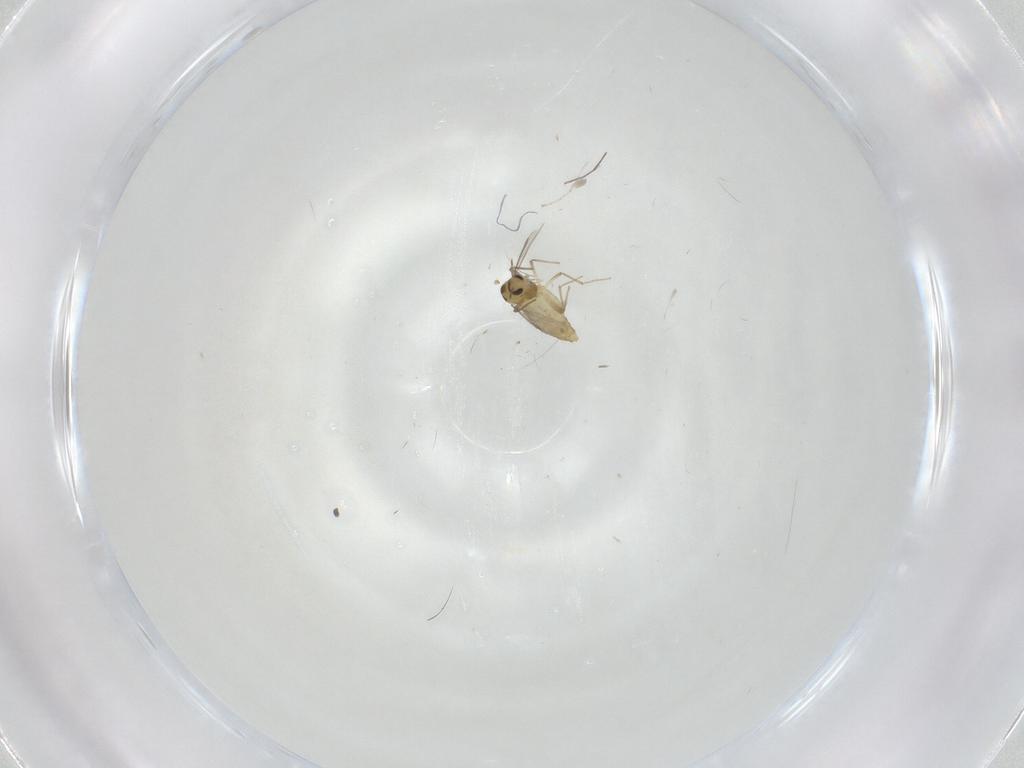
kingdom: Animalia
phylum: Arthropoda
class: Insecta
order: Diptera
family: Chironomidae
